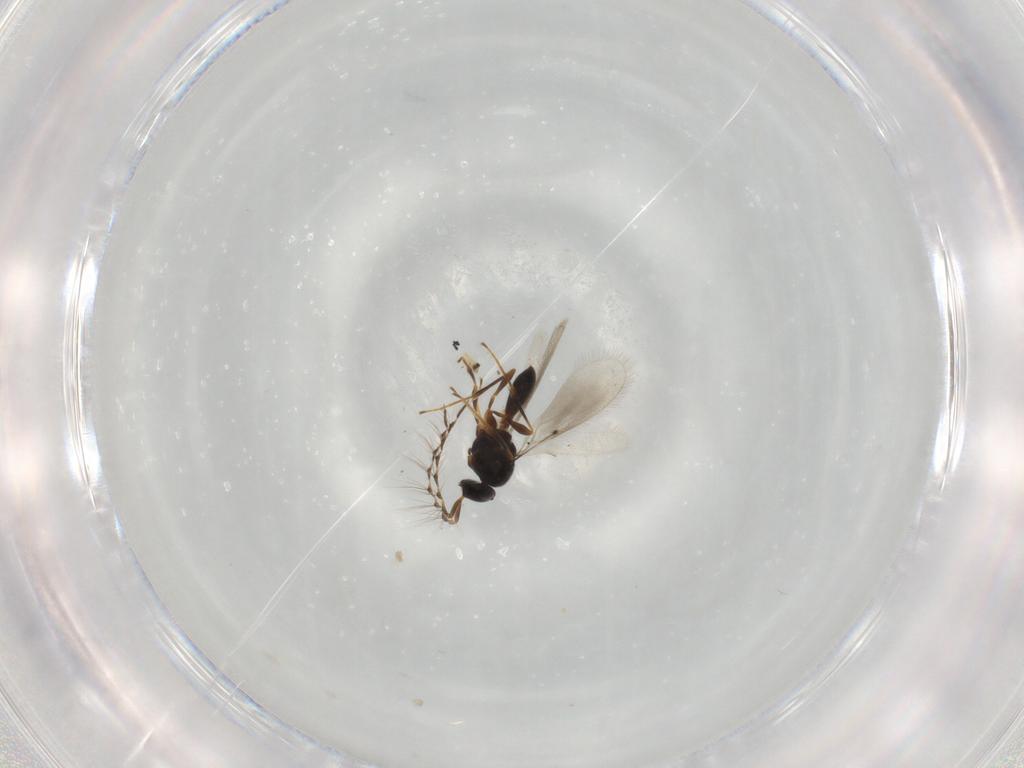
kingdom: Animalia
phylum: Arthropoda
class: Insecta
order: Hymenoptera
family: Platygastridae
